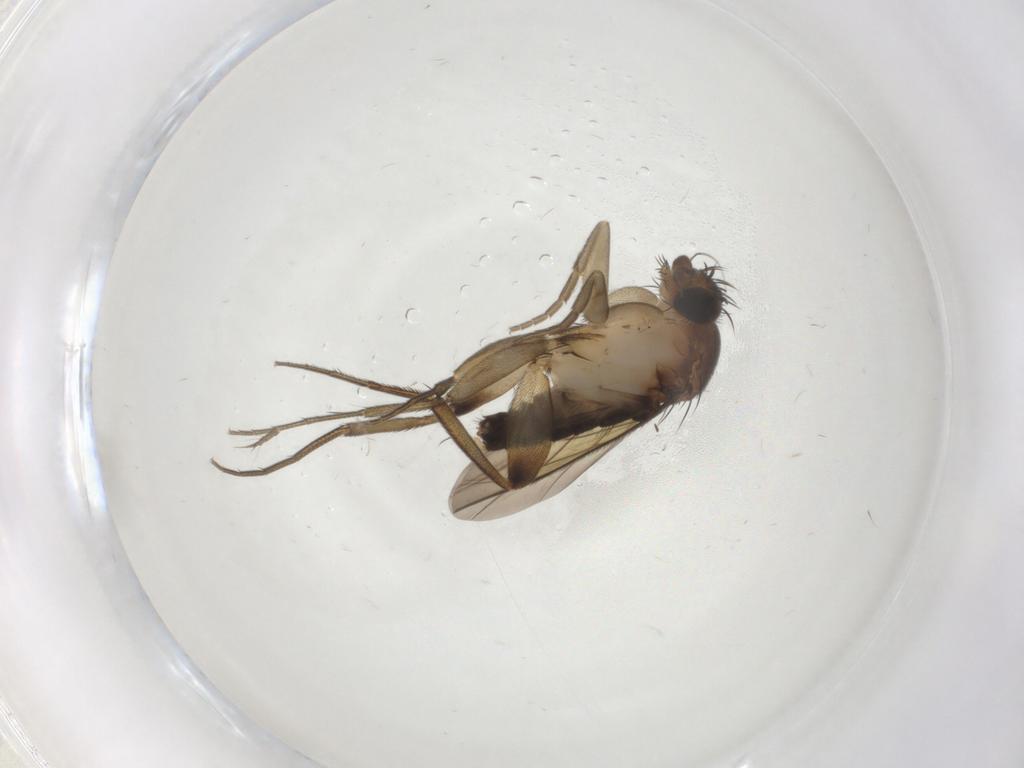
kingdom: Animalia
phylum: Arthropoda
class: Insecta
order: Diptera
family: Phoridae
